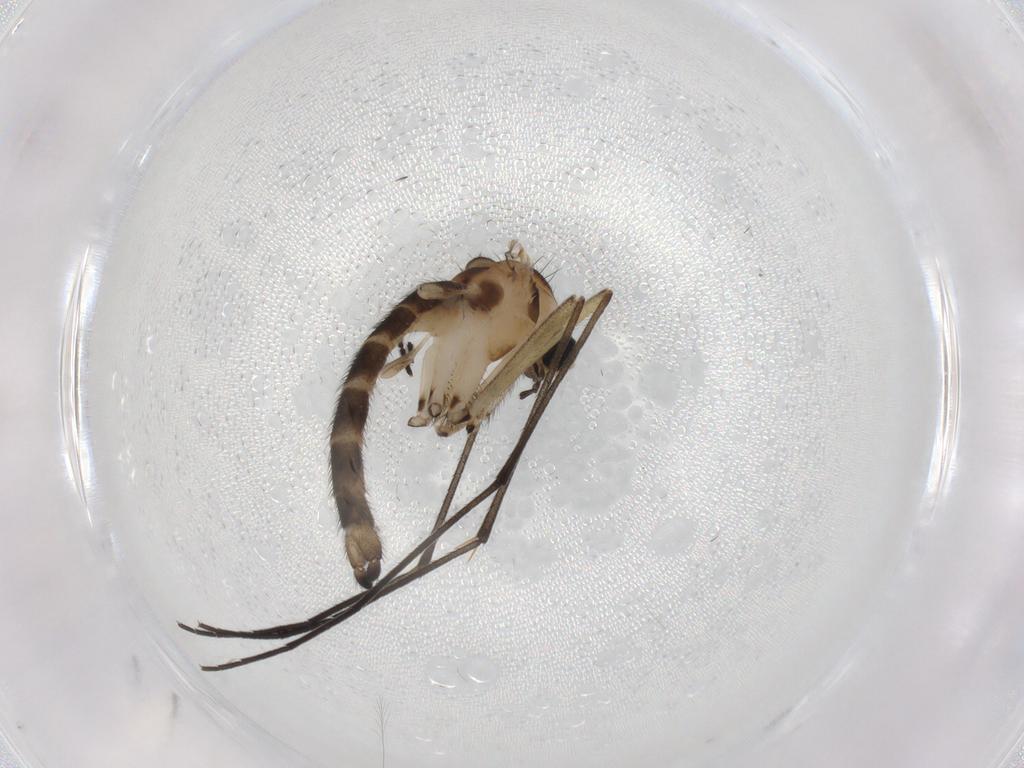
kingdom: Animalia
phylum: Arthropoda
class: Insecta
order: Diptera
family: Sciaridae
